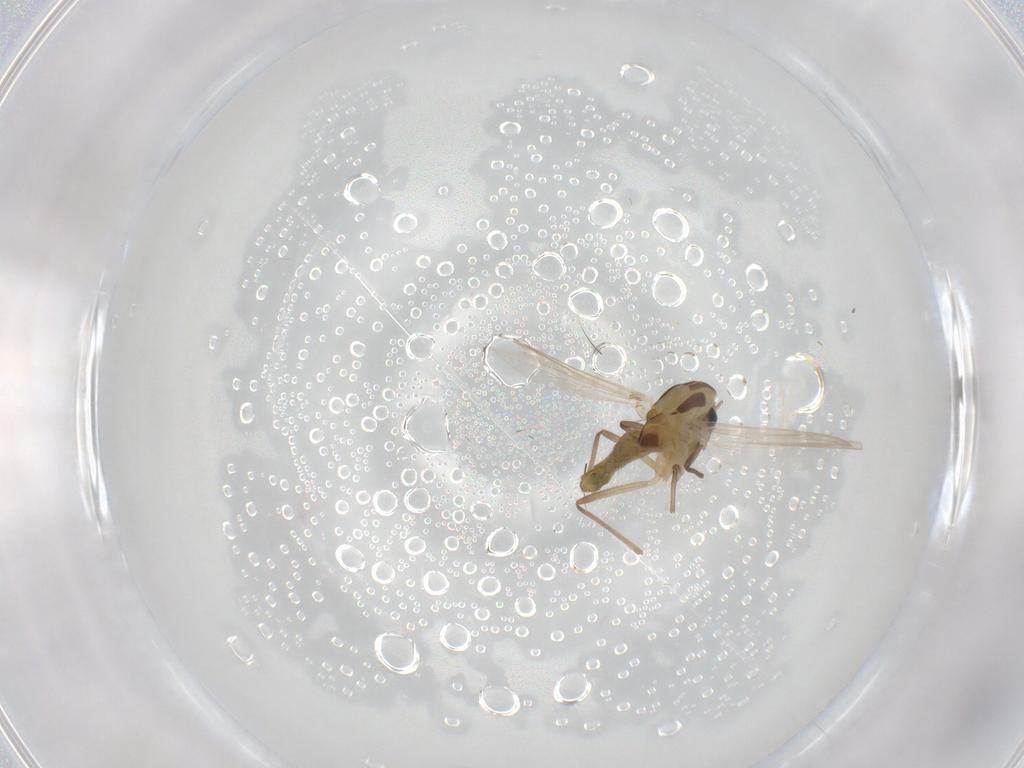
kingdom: Animalia
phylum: Arthropoda
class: Insecta
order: Diptera
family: Chironomidae
